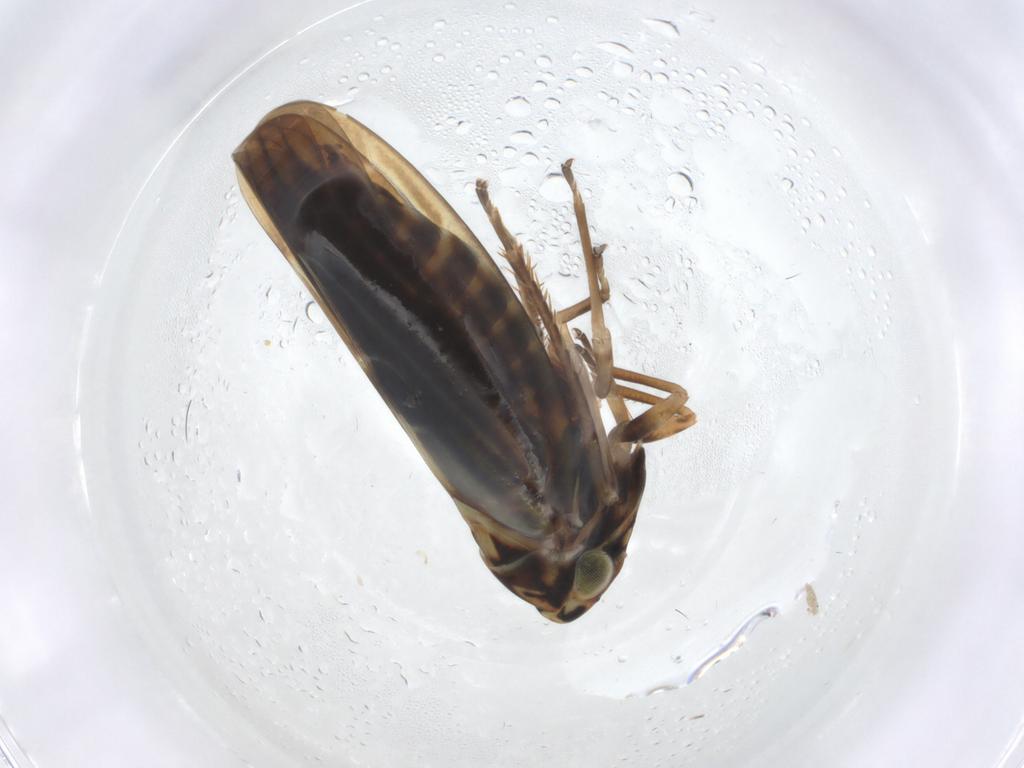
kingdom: Animalia
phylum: Arthropoda
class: Insecta
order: Hemiptera
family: Cicadellidae
